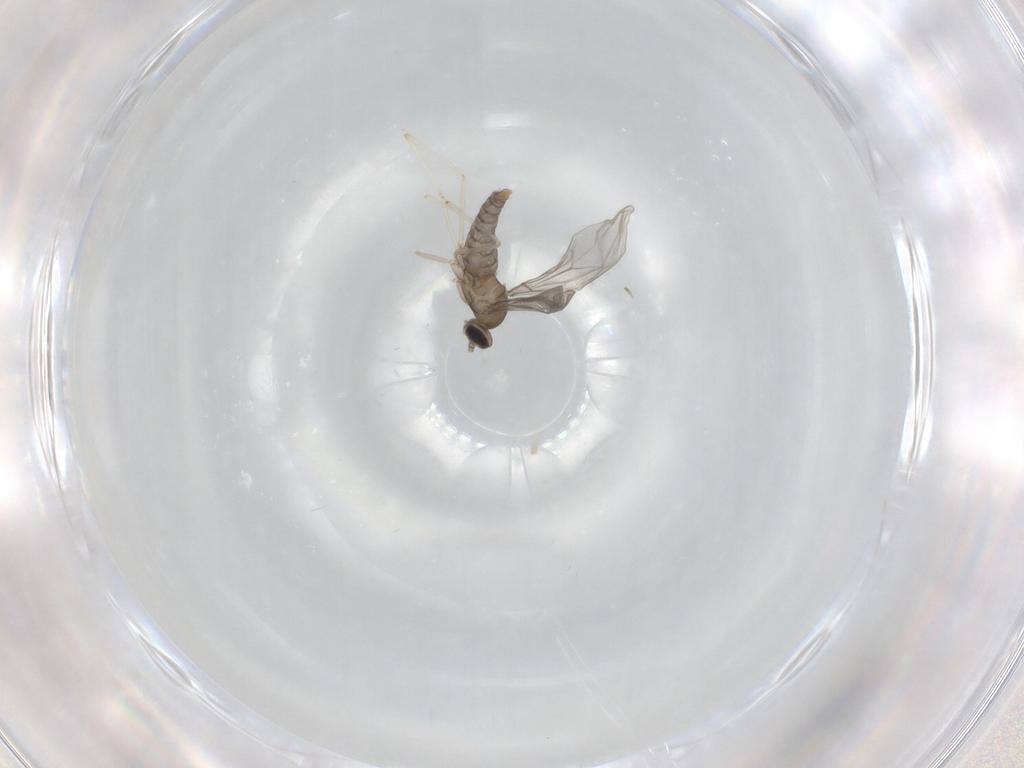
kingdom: Animalia
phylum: Arthropoda
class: Insecta
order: Diptera
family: Cecidomyiidae
